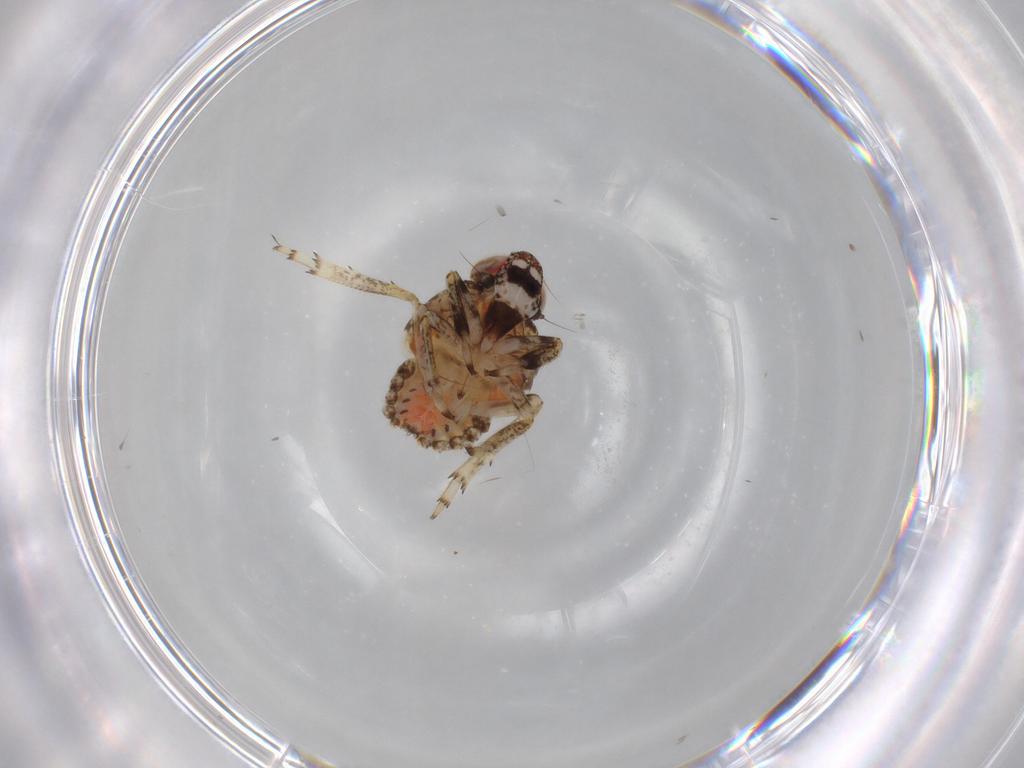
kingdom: Animalia
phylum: Arthropoda
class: Insecta
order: Hemiptera
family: Issidae
